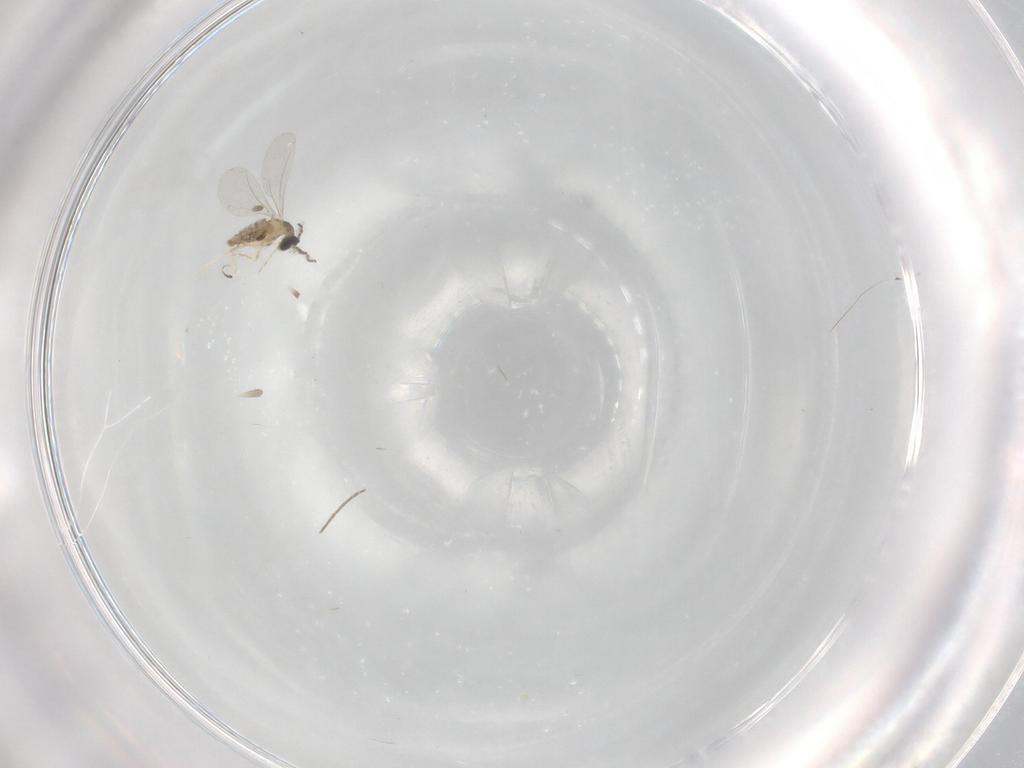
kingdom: Animalia
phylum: Arthropoda
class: Insecta
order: Diptera
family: Cecidomyiidae
